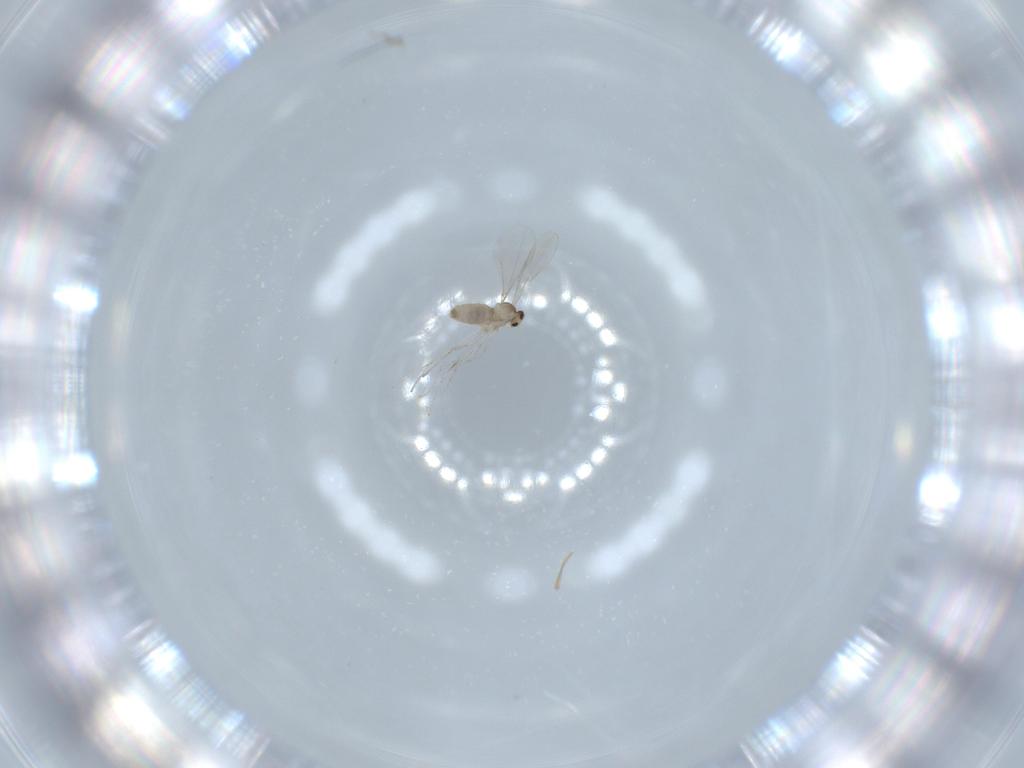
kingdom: Animalia
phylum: Arthropoda
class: Insecta
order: Diptera
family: Cecidomyiidae
